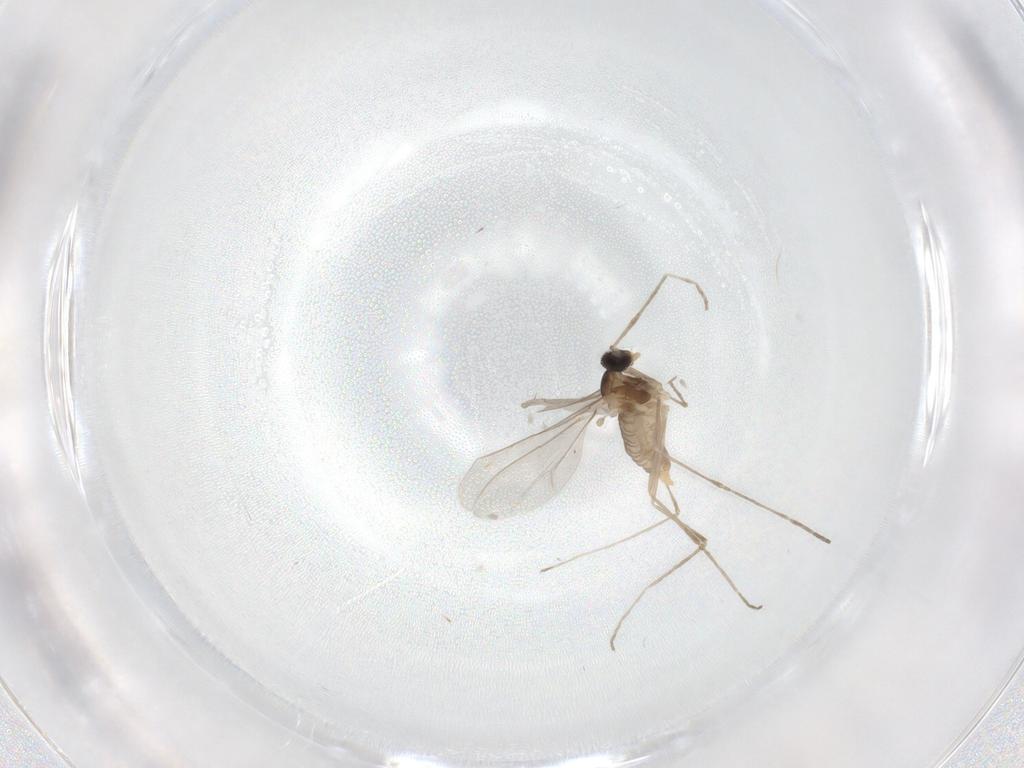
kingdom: Animalia
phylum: Arthropoda
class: Insecta
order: Diptera
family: Cecidomyiidae
